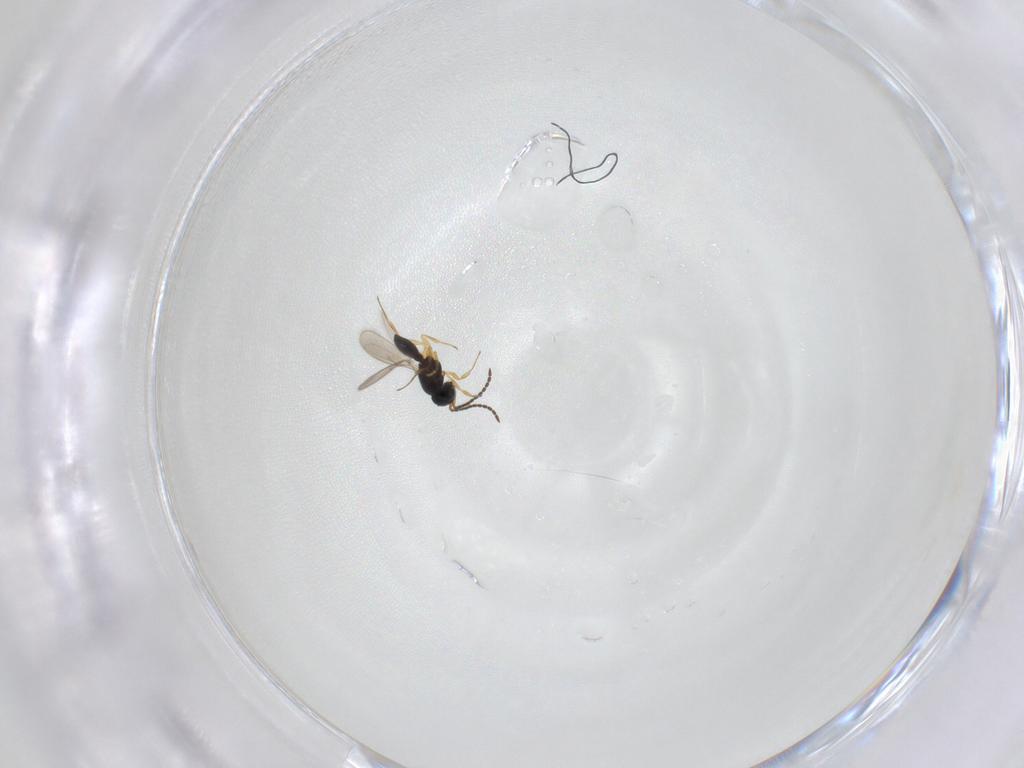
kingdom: Animalia
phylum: Arthropoda
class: Insecta
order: Hymenoptera
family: Scelionidae
